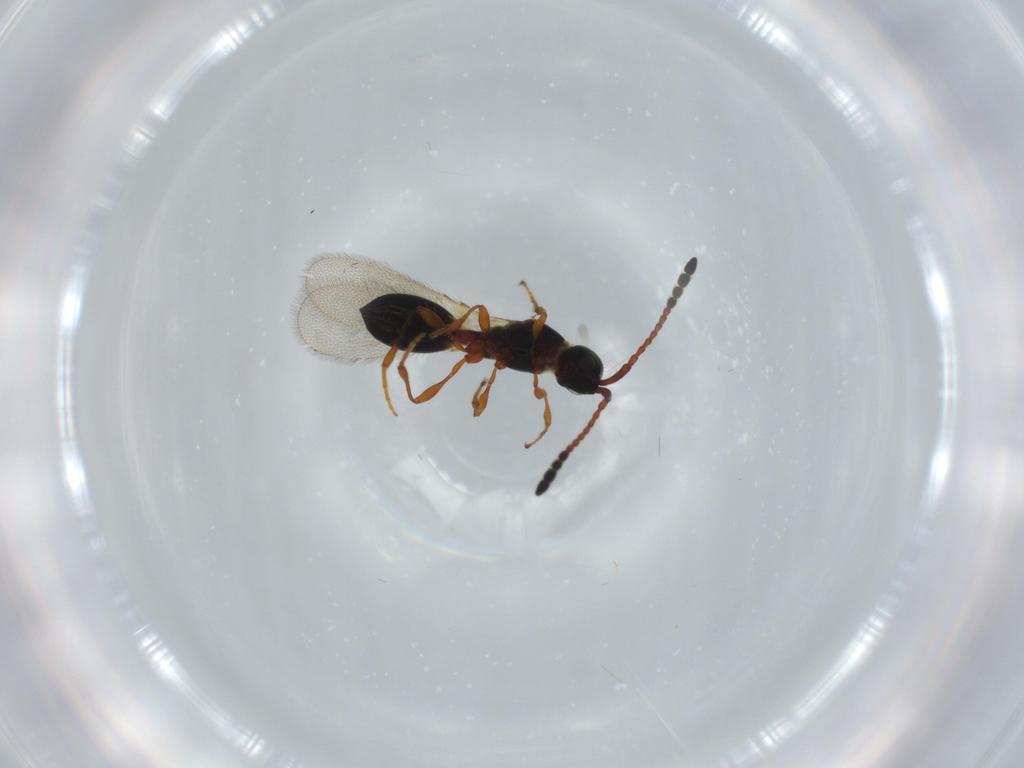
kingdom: Animalia
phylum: Arthropoda
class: Insecta
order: Hymenoptera
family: Diapriidae
